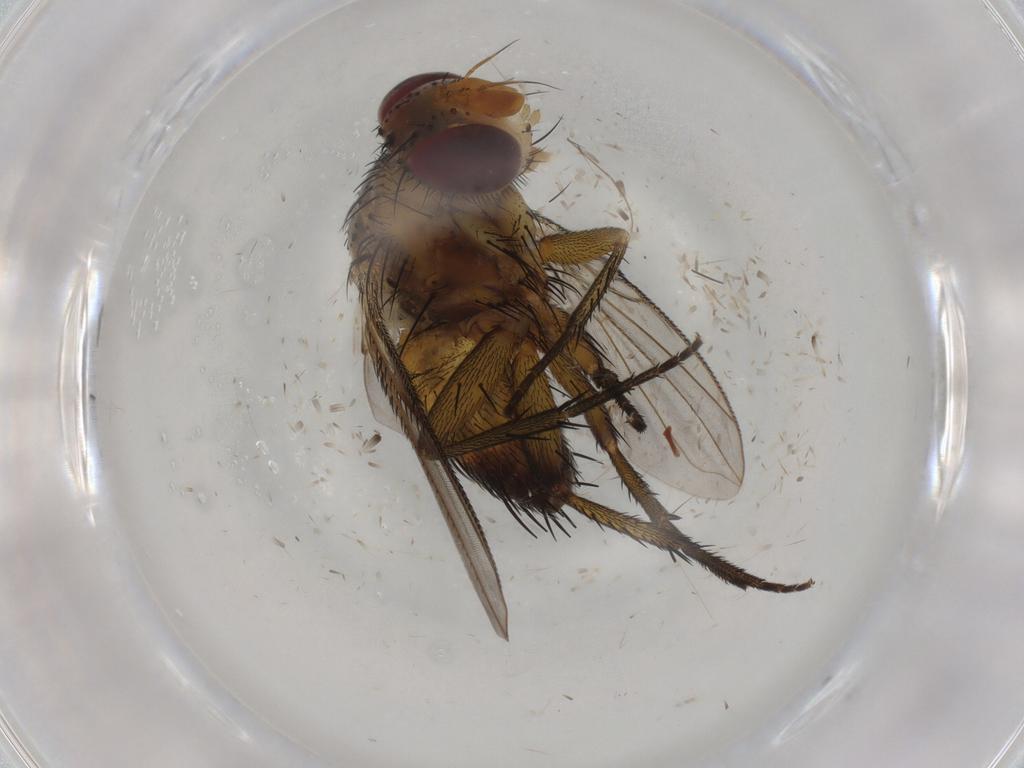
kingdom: Animalia
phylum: Arthropoda
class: Insecta
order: Diptera
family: Cecidomyiidae
